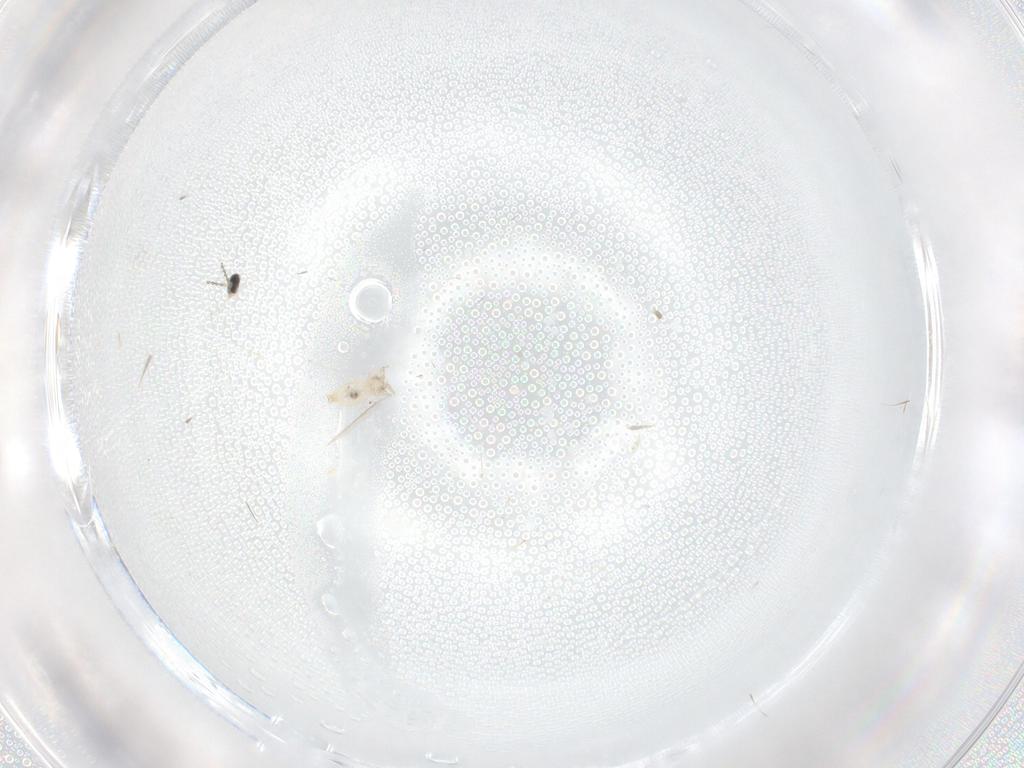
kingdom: Animalia
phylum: Arthropoda
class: Insecta
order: Diptera
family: Cecidomyiidae
